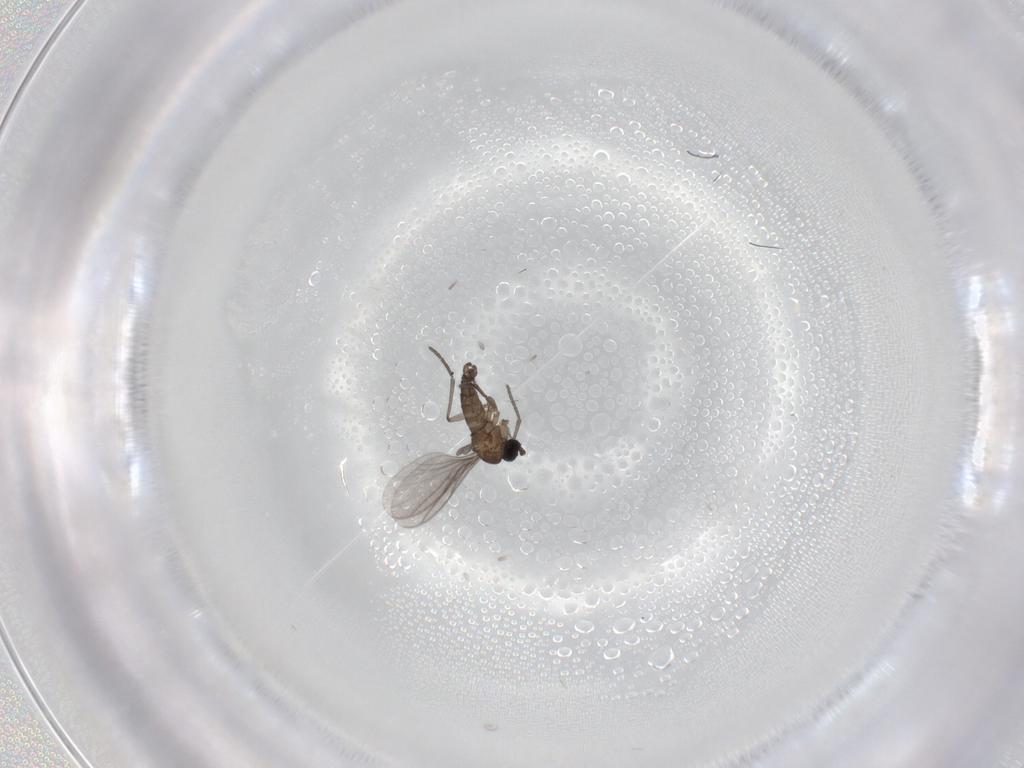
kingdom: Animalia
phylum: Arthropoda
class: Insecta
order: Diptera
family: Sciaridae
